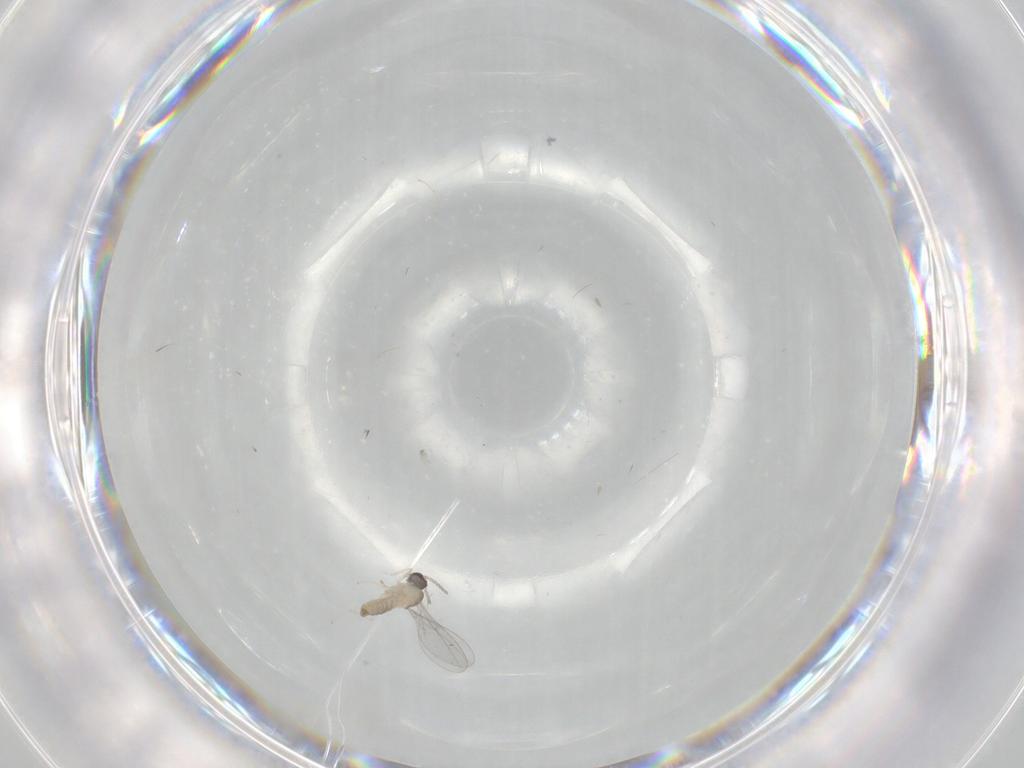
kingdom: Animalia
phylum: Arthropoda
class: Insecta
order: Diptera
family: Cecidomyiidae
